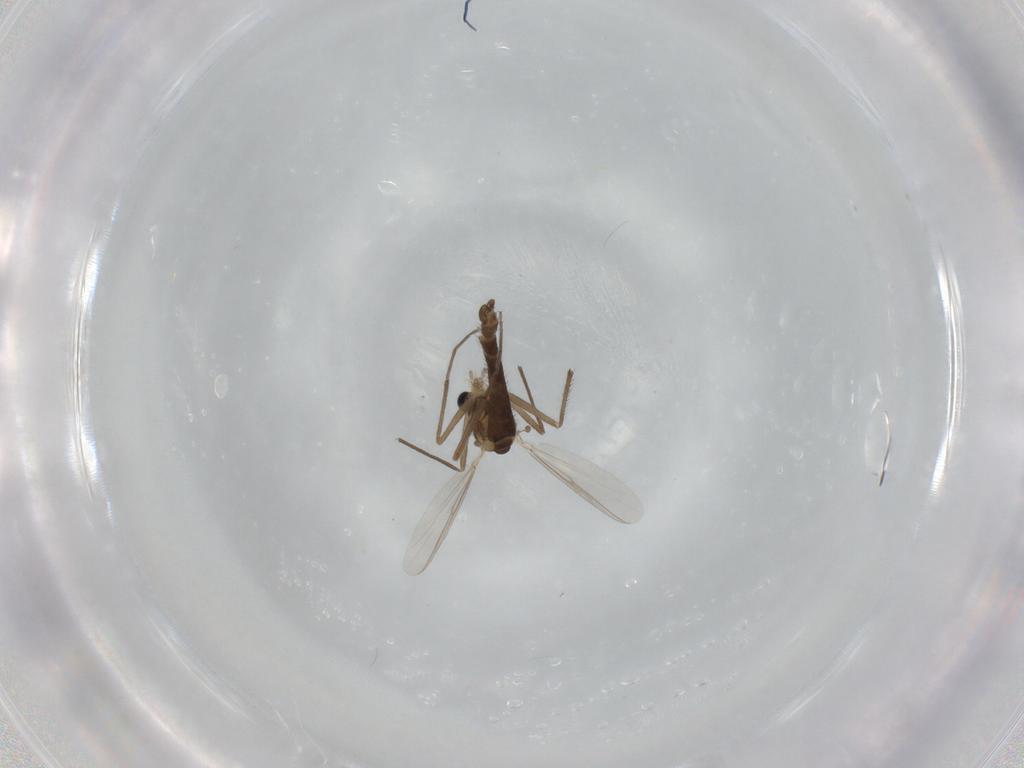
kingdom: Animalia
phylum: Arthropoda
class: Insecta
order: Diptera
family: Chironomidae
